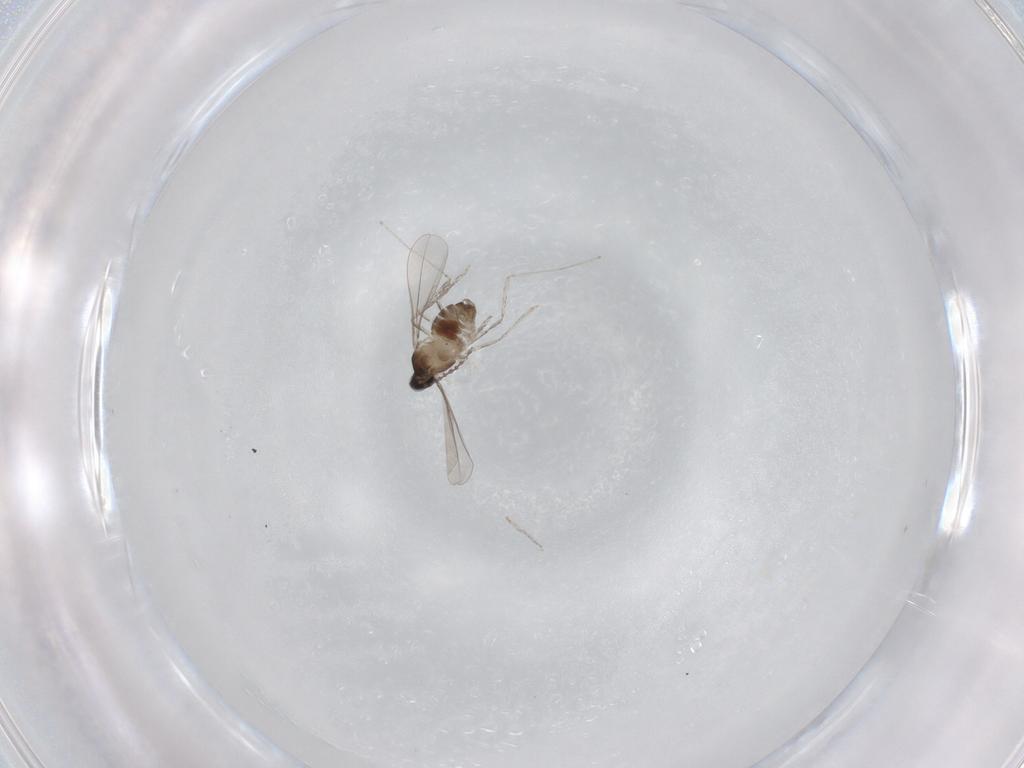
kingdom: Animalia
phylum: Arthropoda
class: Insecta
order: Diptera
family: Cecidomyiidae
